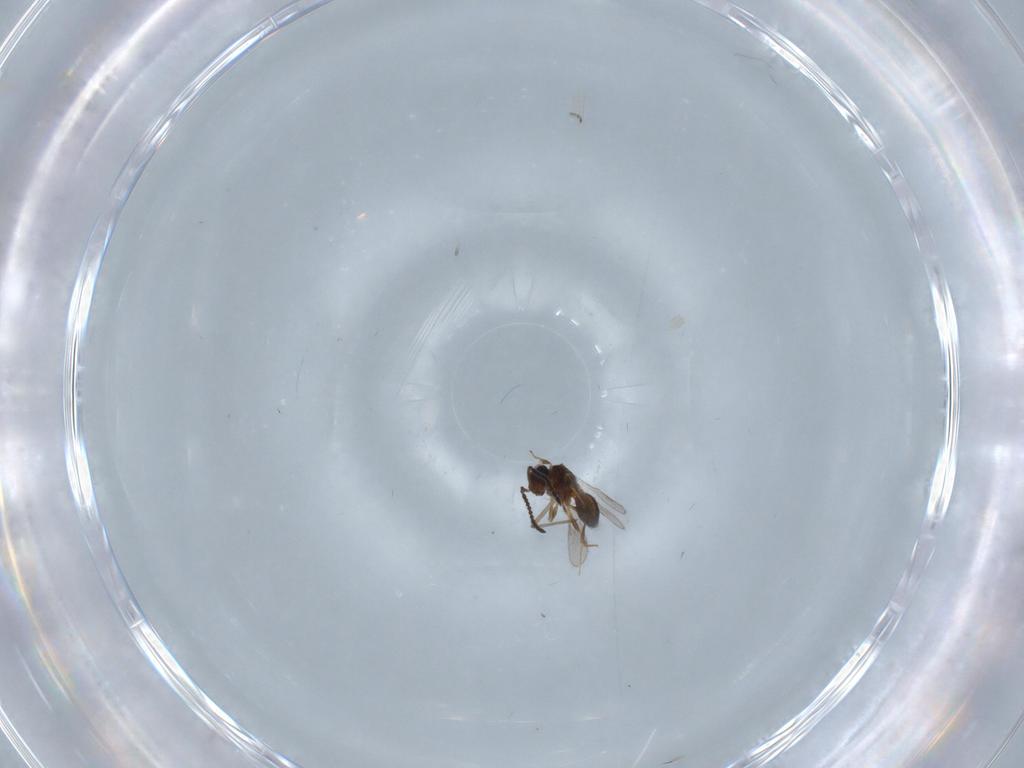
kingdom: Animalia
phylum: Arthropoda
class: Insecta
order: Hymenoptera
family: Scelionidae
